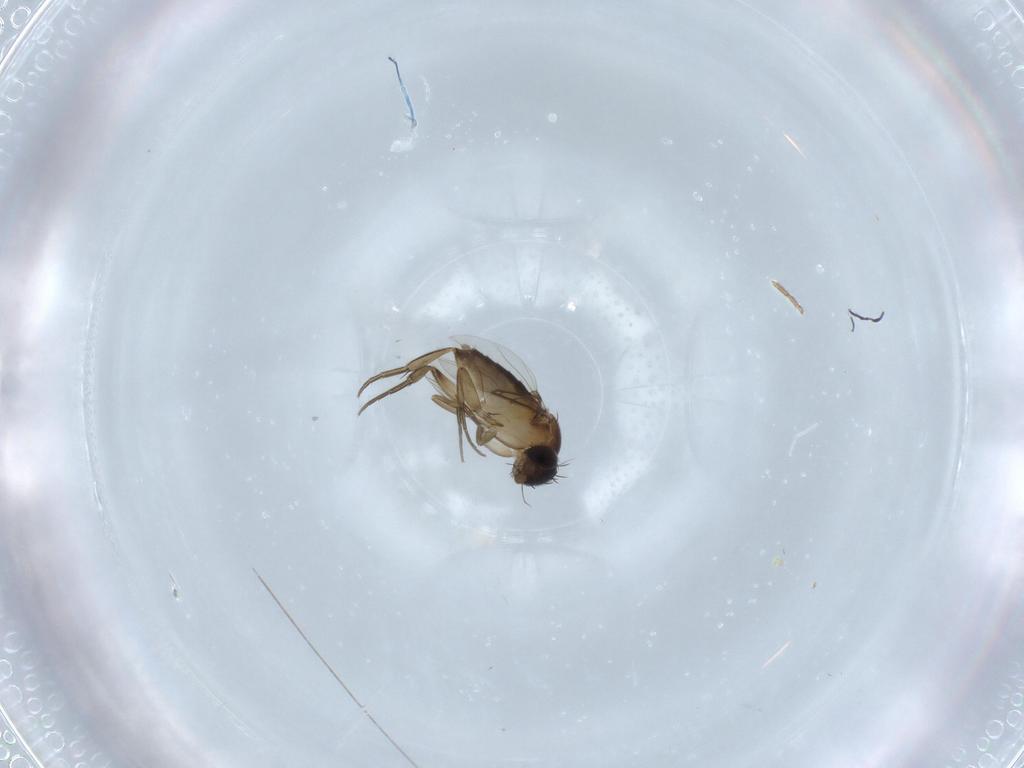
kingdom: Animalia
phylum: Arthropoda
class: Insecta
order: Diptera
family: Phoridae
